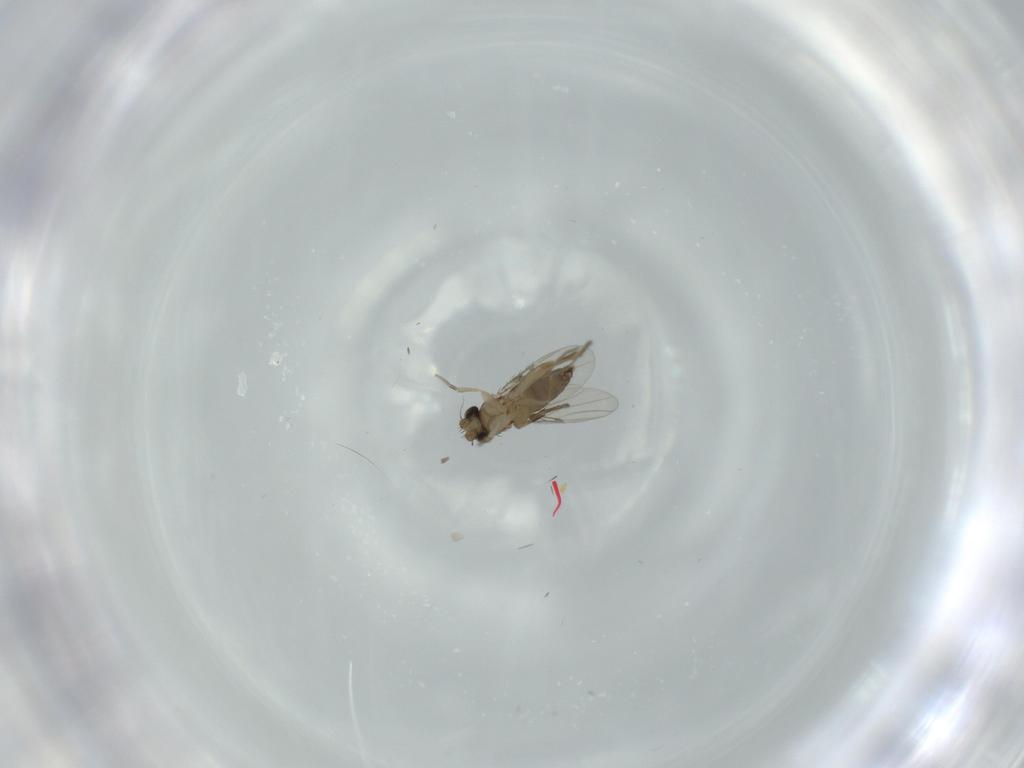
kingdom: Animalia
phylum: Arthropoda
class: Insecta
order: Diptera
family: Phoridae
